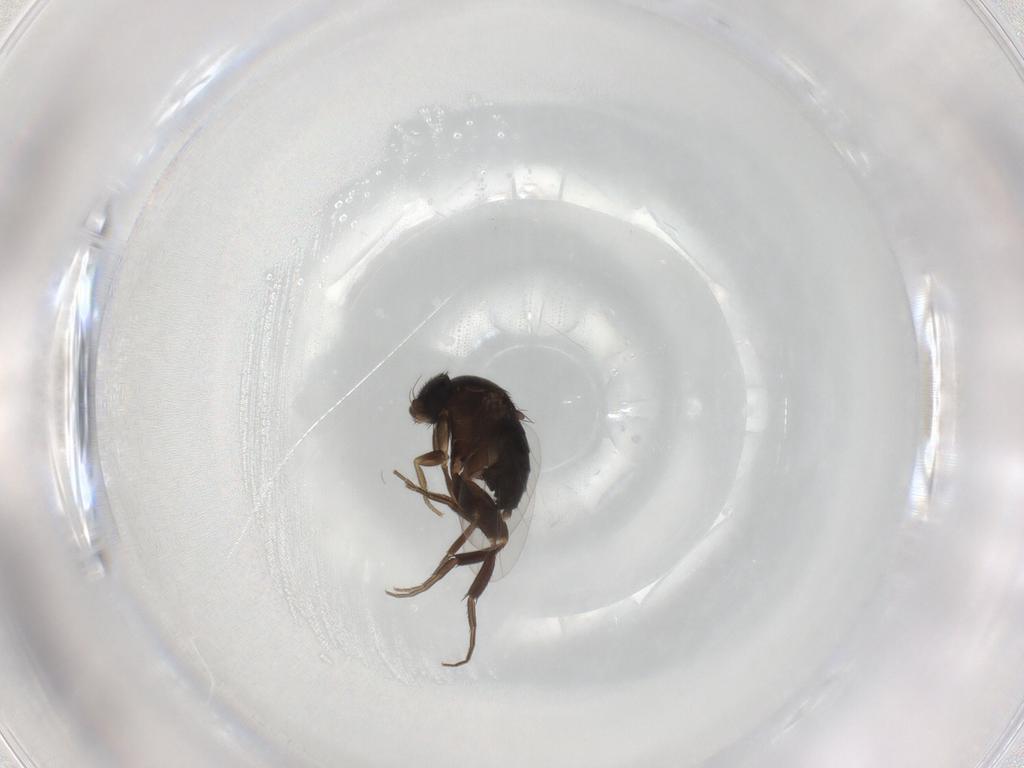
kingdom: Animalia
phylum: Arthropoda
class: Insecta
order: Diptera
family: Phoridae
